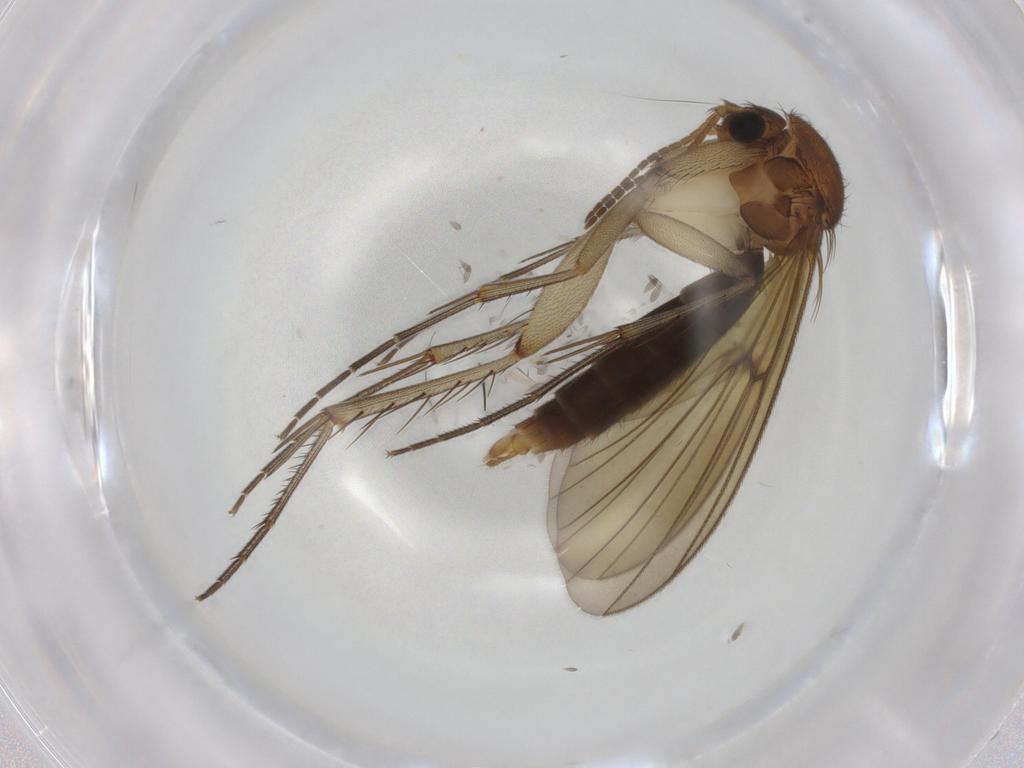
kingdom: Animalia
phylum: Arthropoda
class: Insecta
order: Diptera
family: Mycetophilidae
